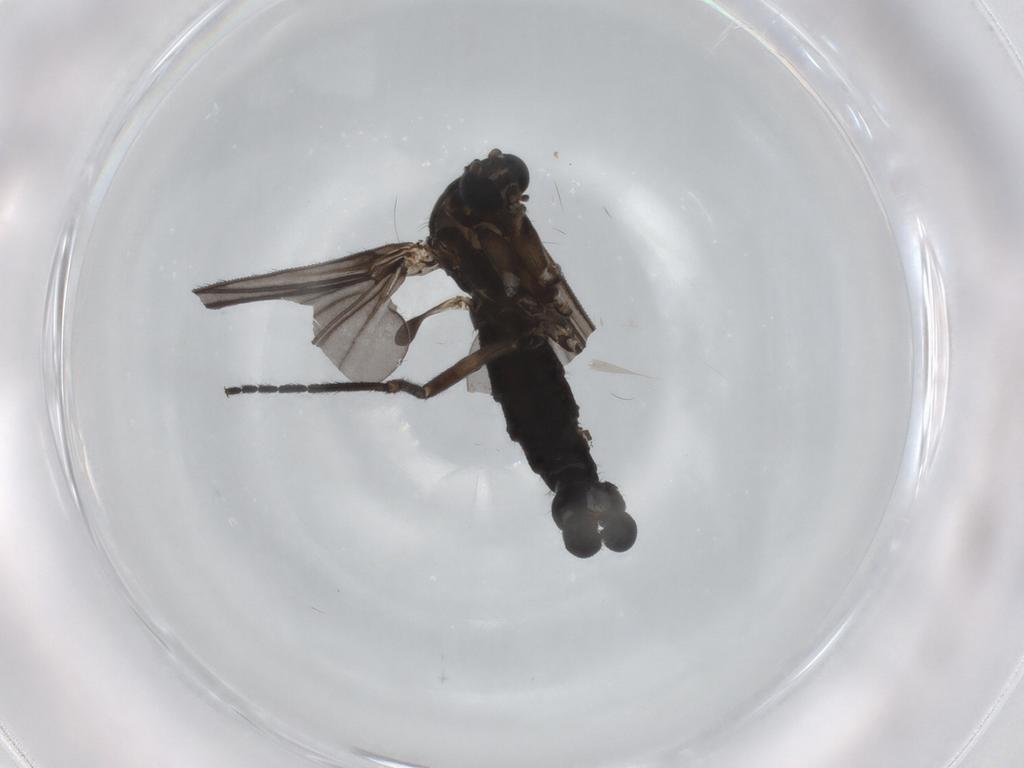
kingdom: Animalia
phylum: Arthropoda
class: Insecta
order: Diptera
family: Sciaridae
